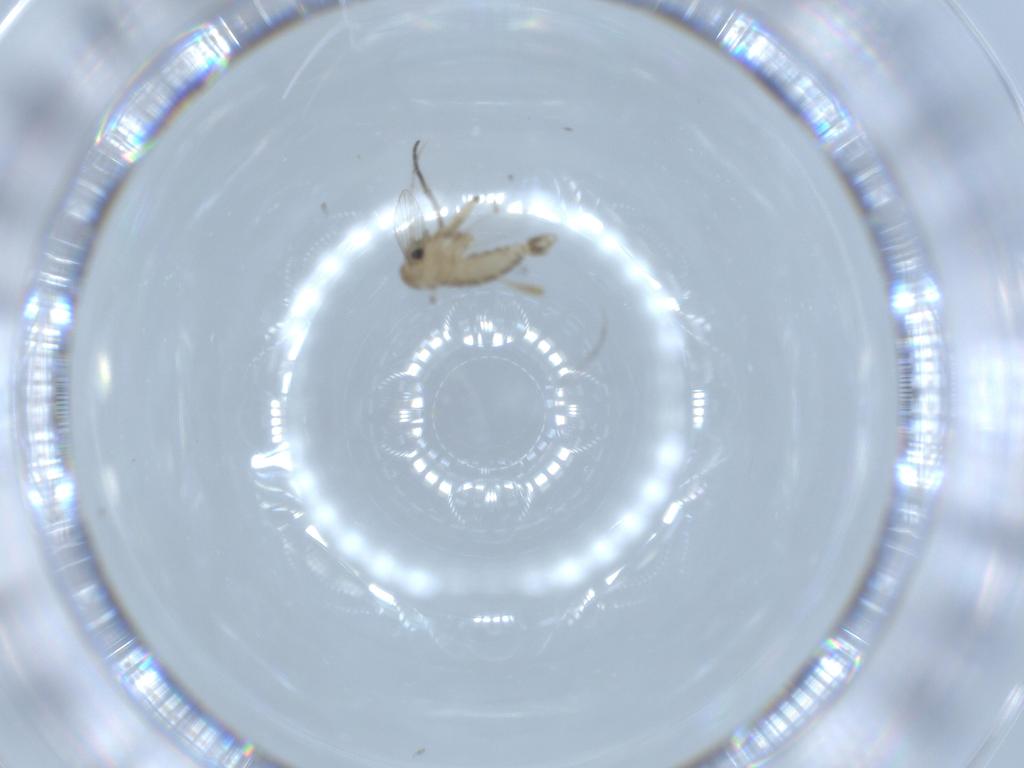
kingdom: Animalia
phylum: Arthropoda
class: Insecta
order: Diptera
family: Psychodidae
